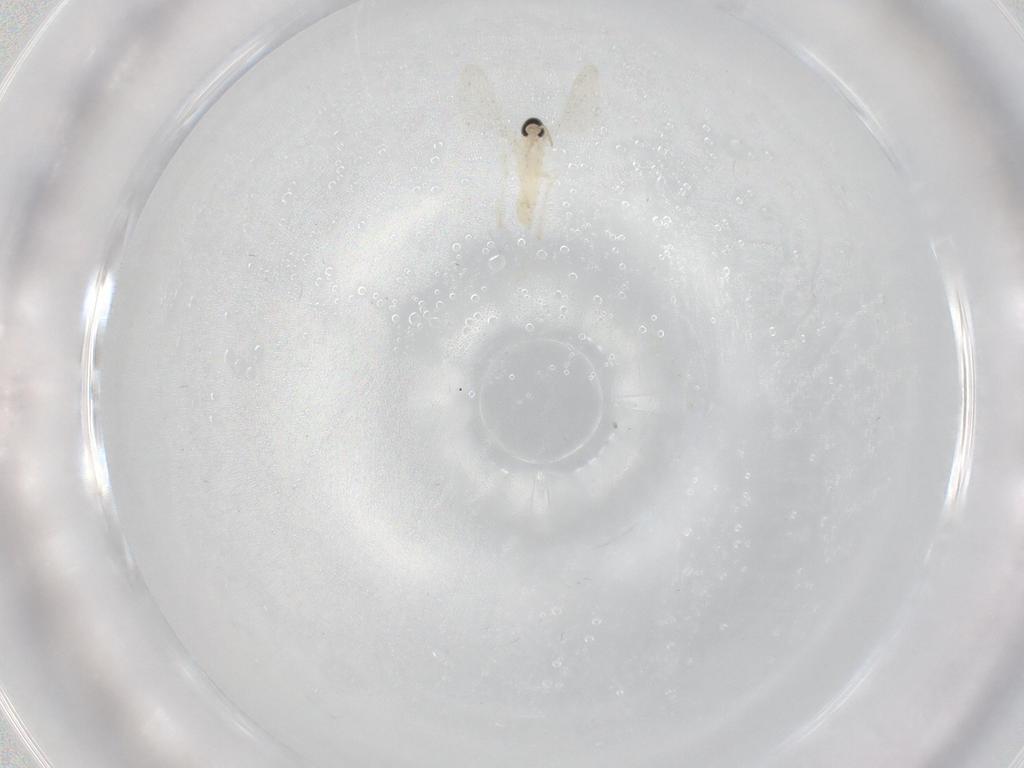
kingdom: Animalia
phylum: Arthropoda
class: Insecta
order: Diptera
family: Cecidomyiidae
